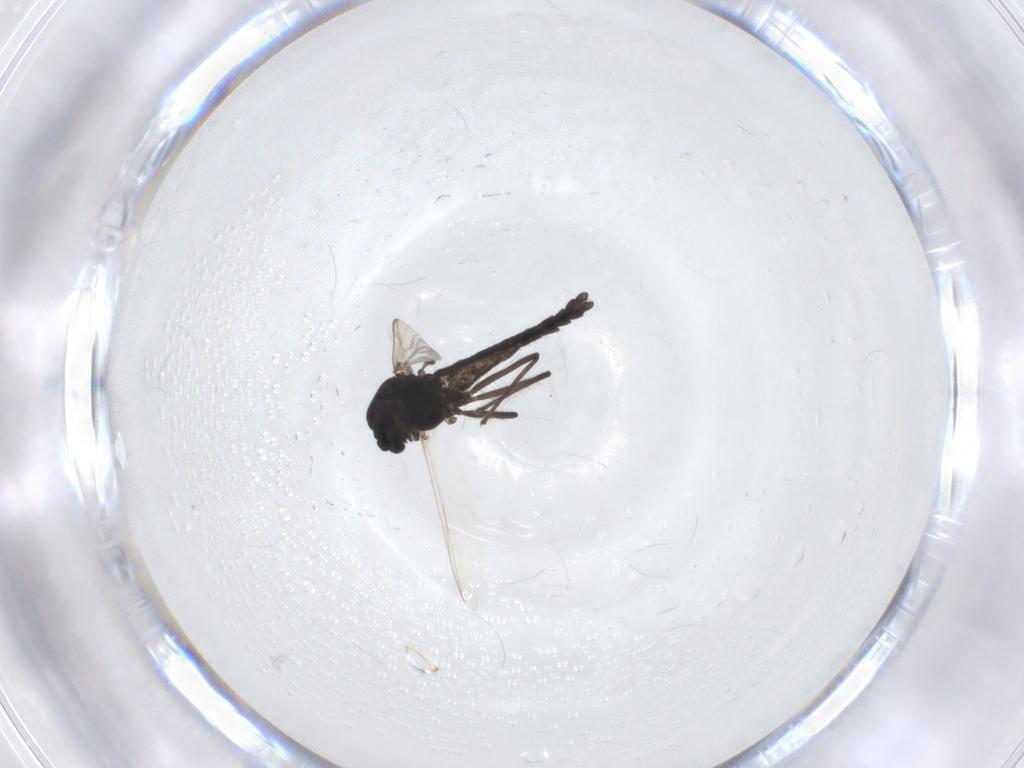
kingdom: Animalia
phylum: Arthropoda
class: Insecta
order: Diptera
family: Chironomidae
